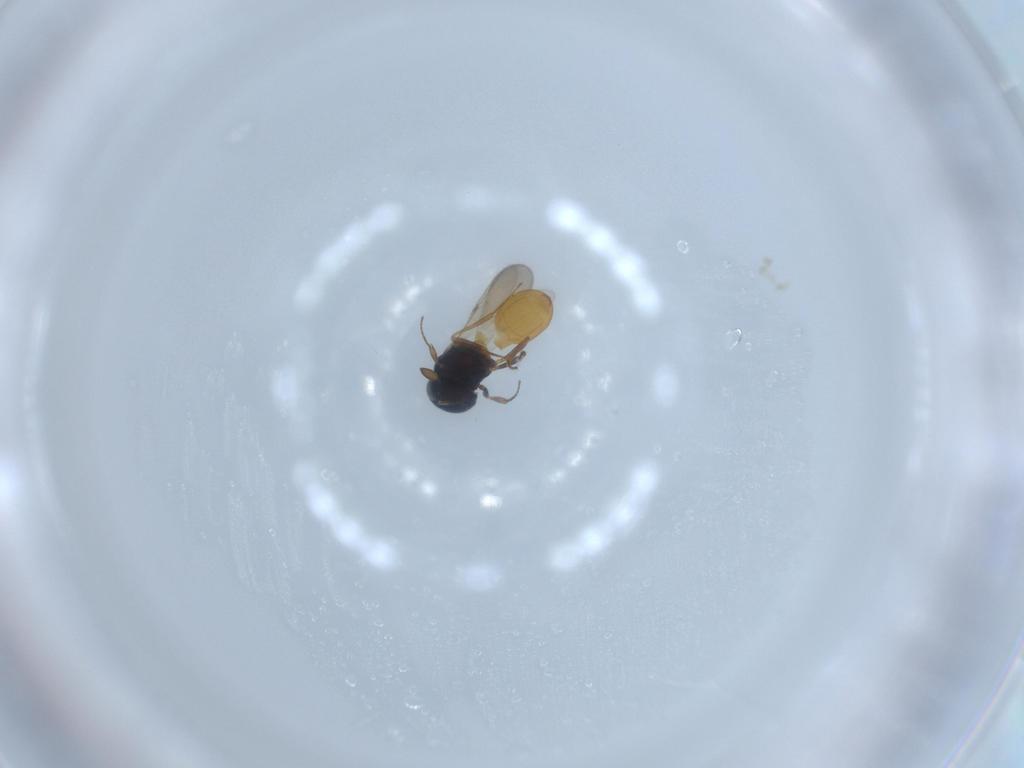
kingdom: Animalia
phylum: Arthropoda
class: Insecta
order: Hymenoptera
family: Scelionidae
